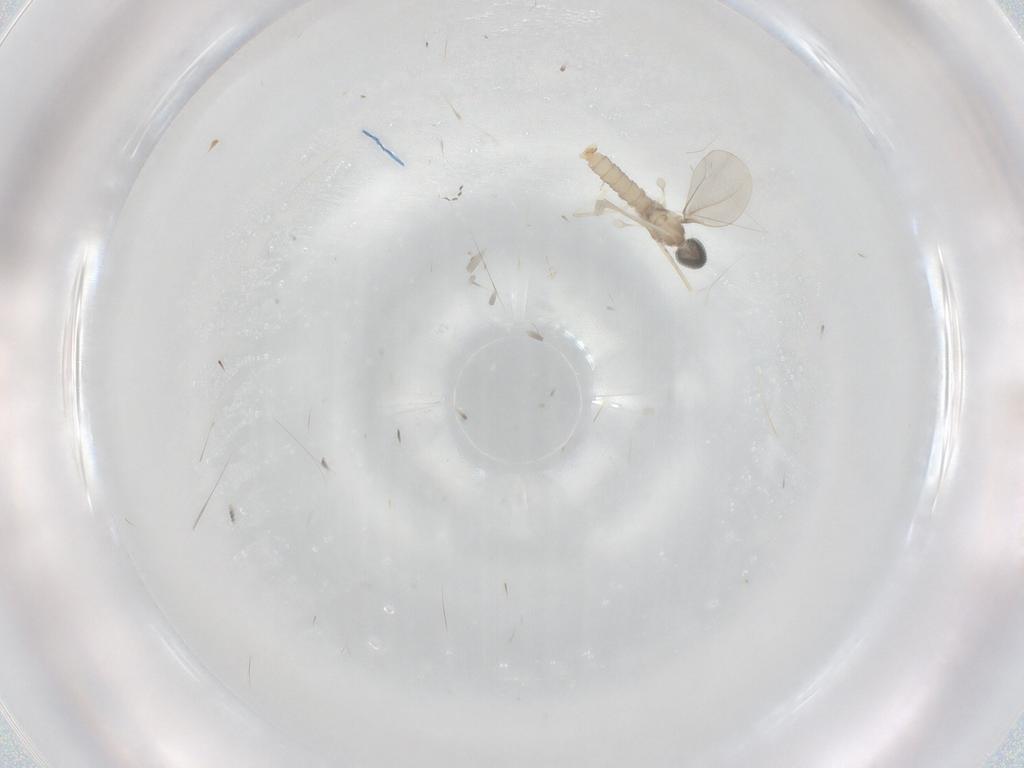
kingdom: Animalia
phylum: Arthropoda
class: Insecta
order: Diptera
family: Cecidomyiidae
